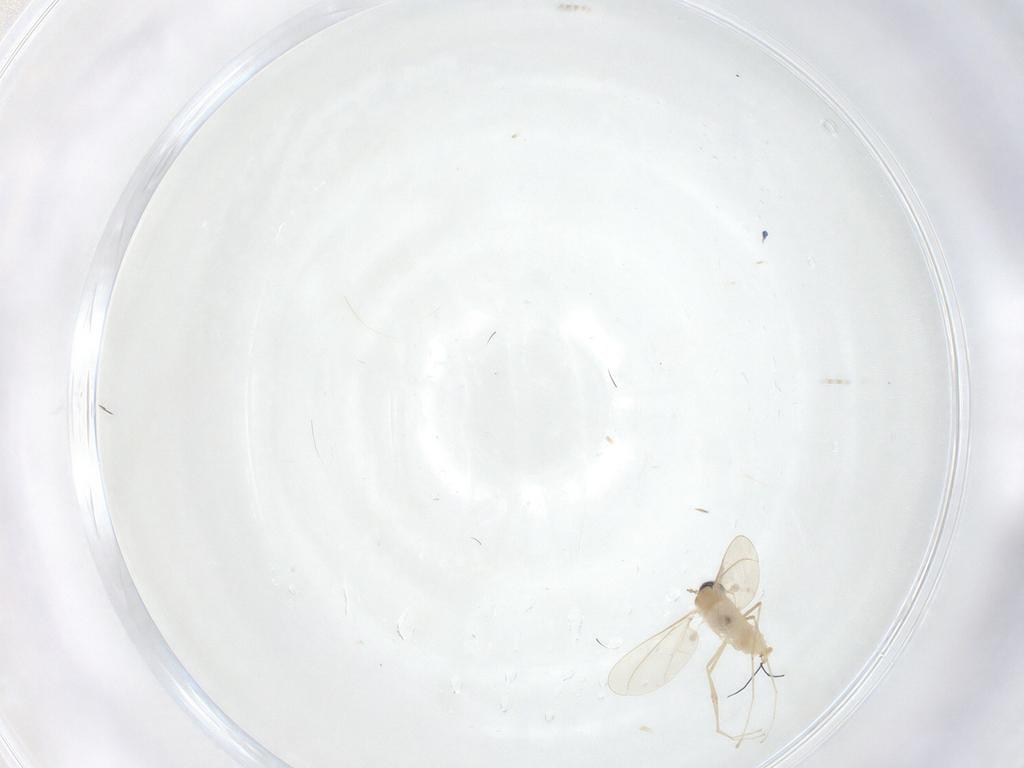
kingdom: Animalia
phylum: Arthropoda
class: Insecta
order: Diptera
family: Cecidomyiidae
